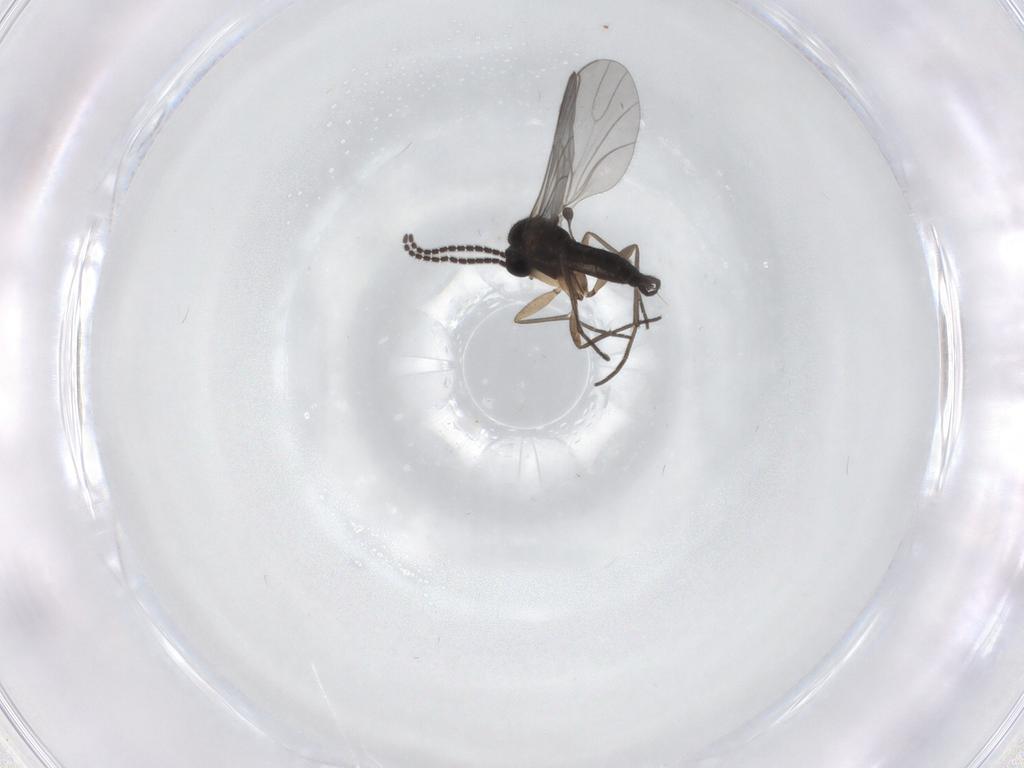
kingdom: Animalia
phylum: Arthropoda
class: Insecta
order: Diptera
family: Sciaridae
